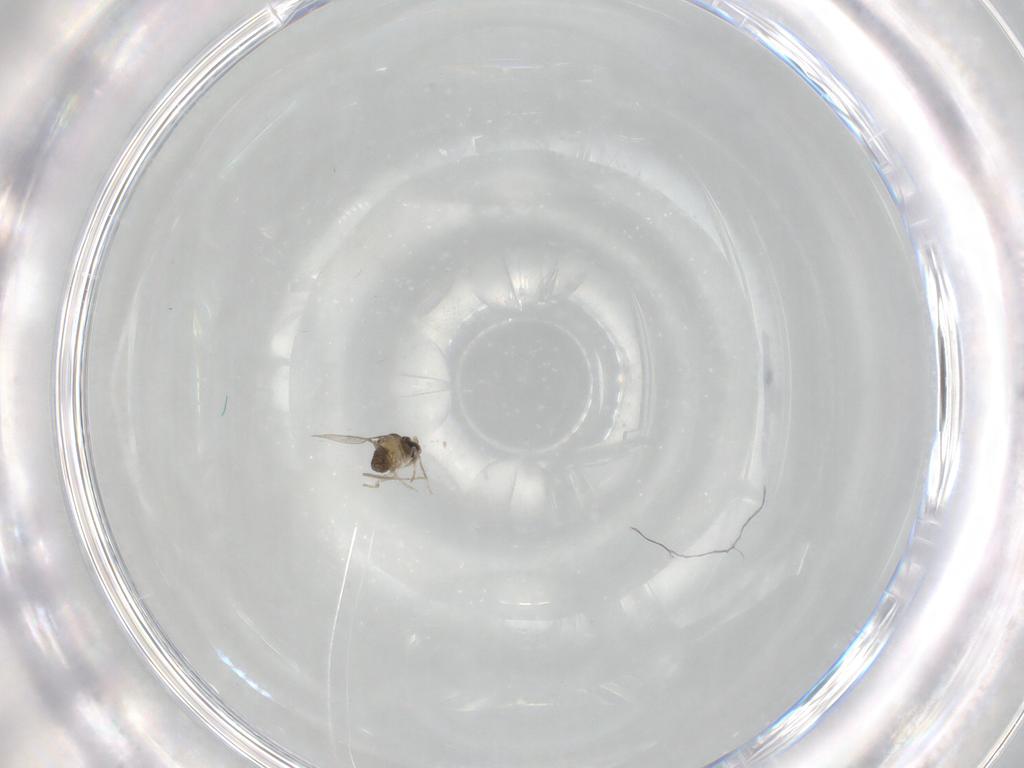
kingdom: Animalia
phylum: Arthropoda
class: Insecta
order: Diptera
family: Cecidomyiidae
